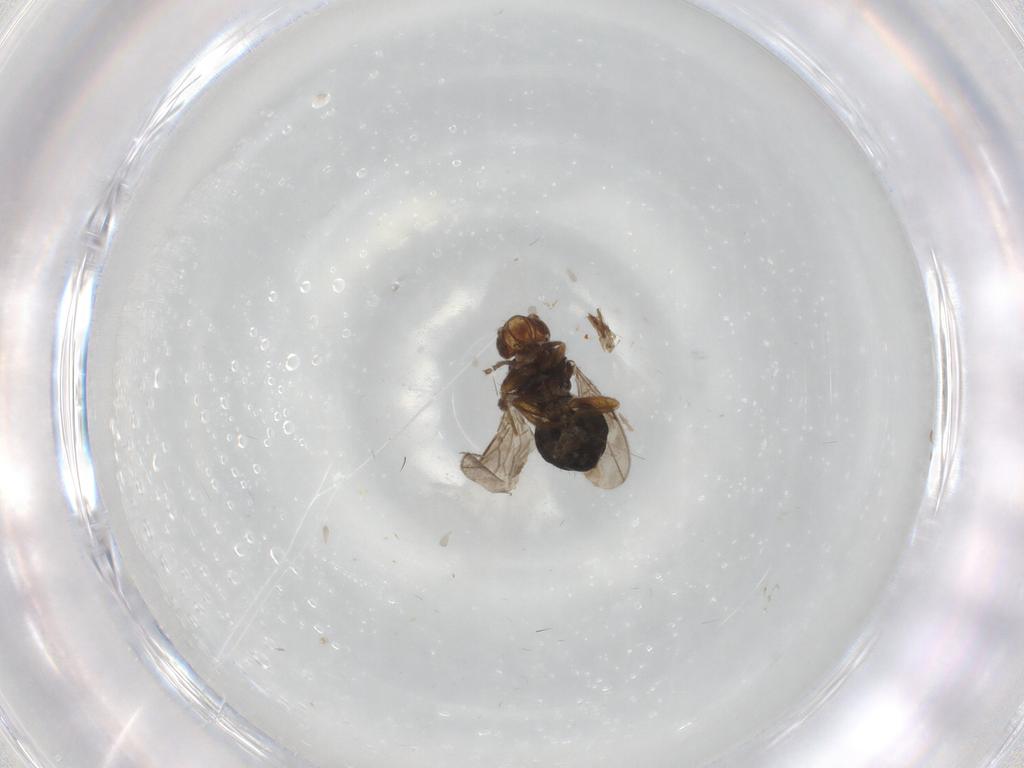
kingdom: Animalia
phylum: Arthropoda
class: Insecta
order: Diptera
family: Sphaeroceridae
